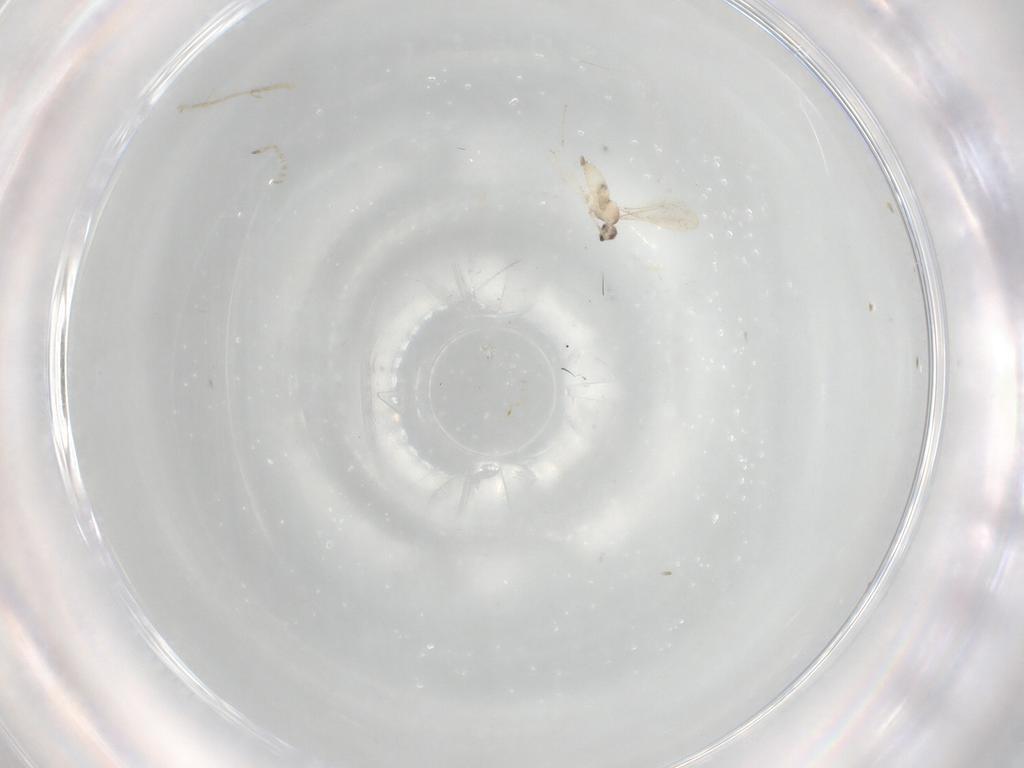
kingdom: Animalia
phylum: Arthropoda
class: Insecta
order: Diptera
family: Cecidomyiidae
